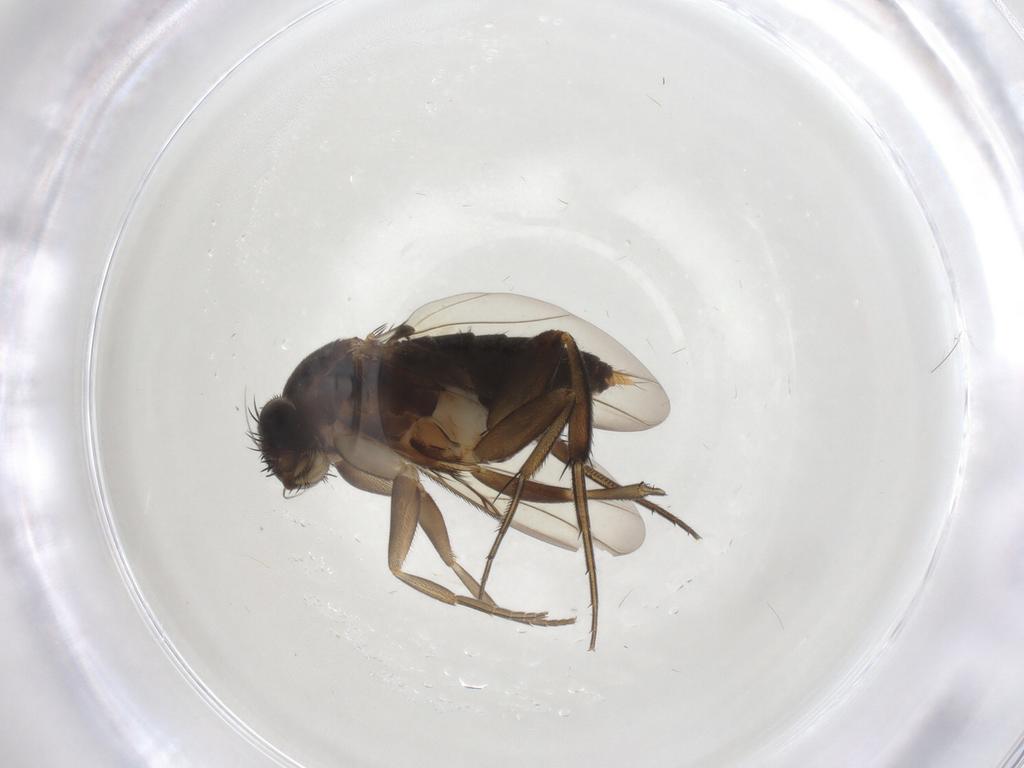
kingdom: Animalia
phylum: Arthropoda
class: Insecta
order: Diptera
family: Phoridae
